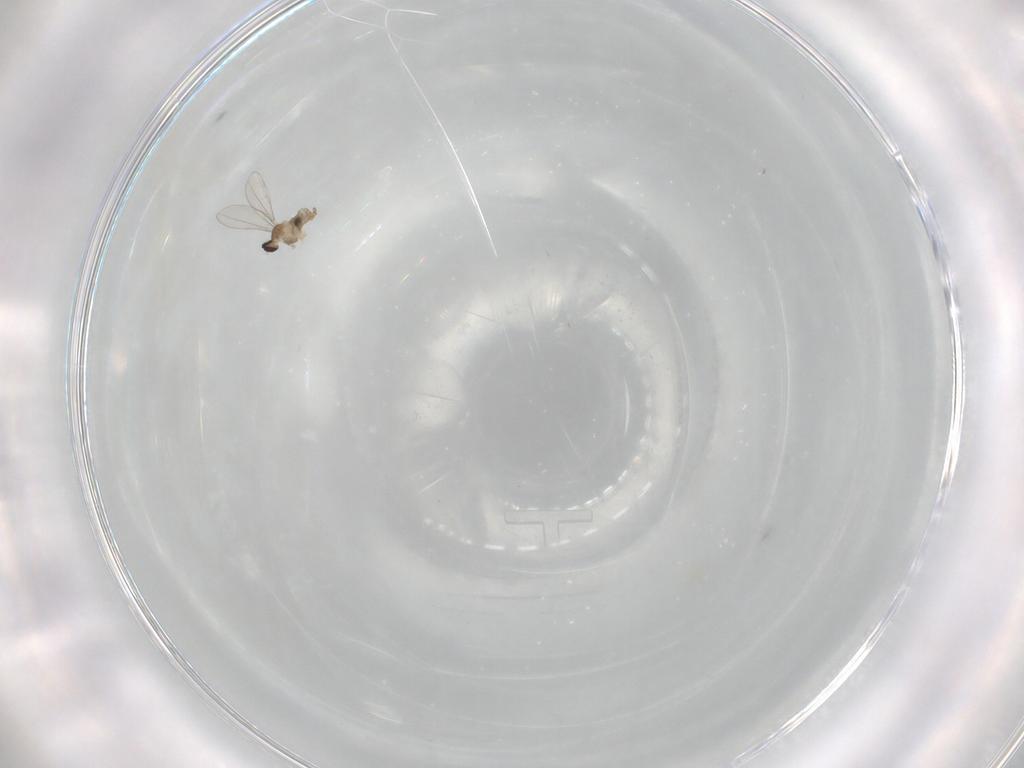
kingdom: Animalia
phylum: Arthropoda
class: Insecta
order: Diptera
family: Cecidomyiidae
